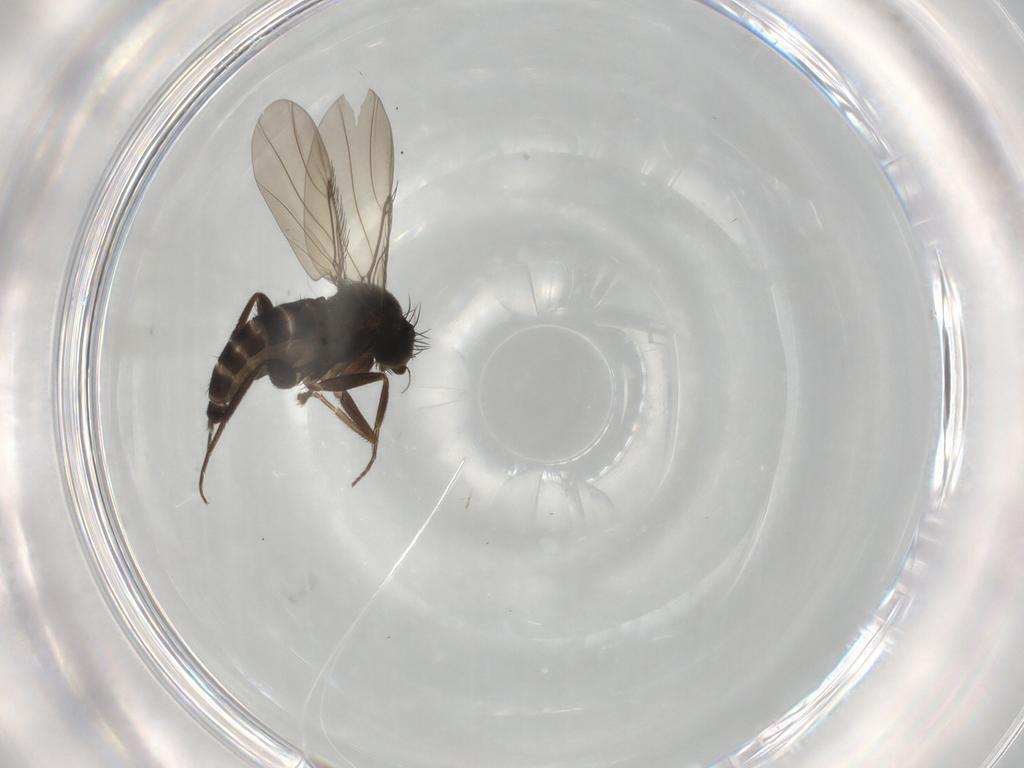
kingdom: Animalia
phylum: Arthropoda
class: Insecta
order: Diptera
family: Phoridae
